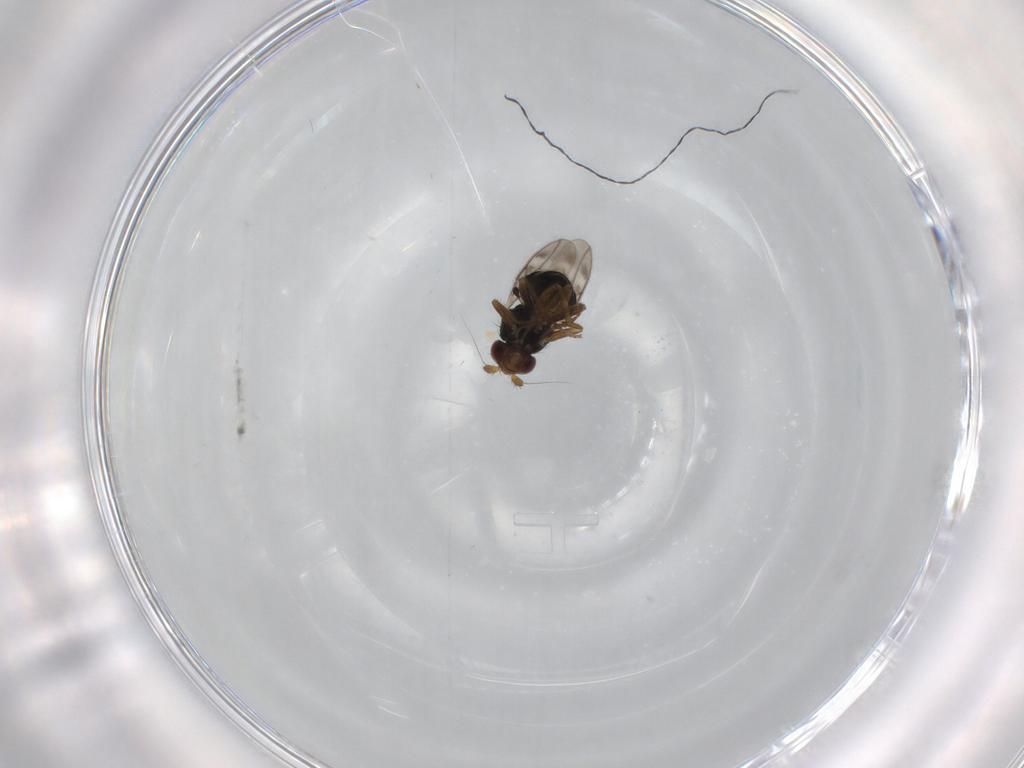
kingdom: Animalia
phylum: Arthropoda
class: Insecta
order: Diptera
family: Sphaeroceridae
